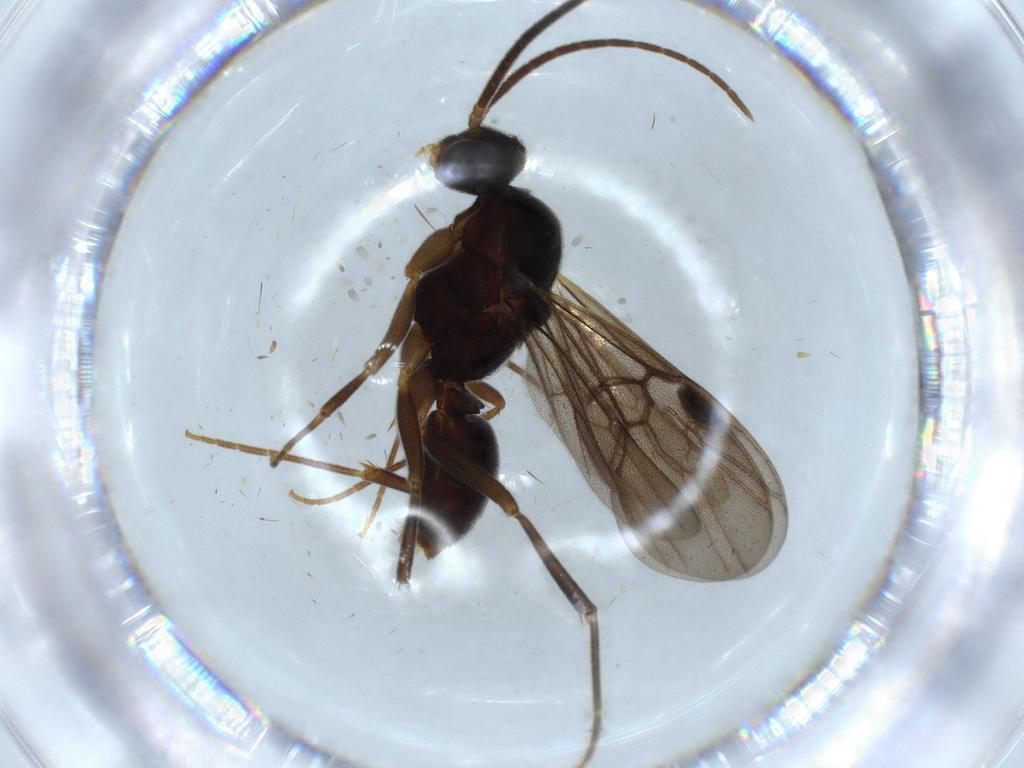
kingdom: Animalia
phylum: Arthropoda
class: Insecta
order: Hymenoptera
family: Formicidae
